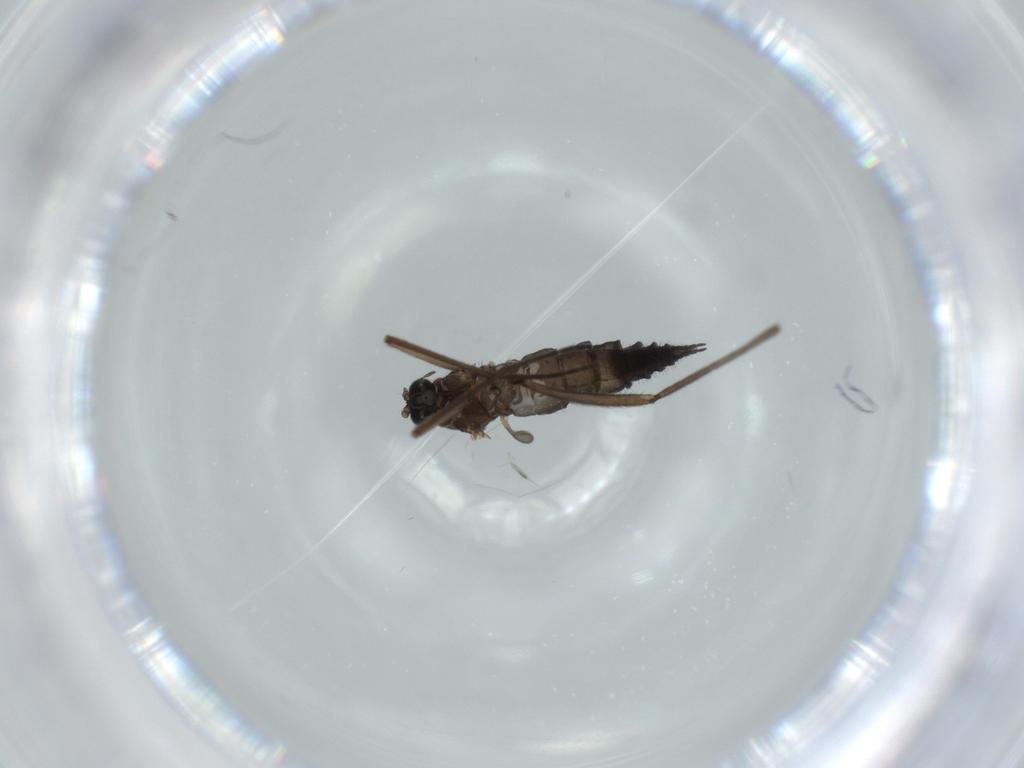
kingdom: Animalia
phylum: Arthropoda
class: Insecta
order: Diptera
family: Sciaridae
